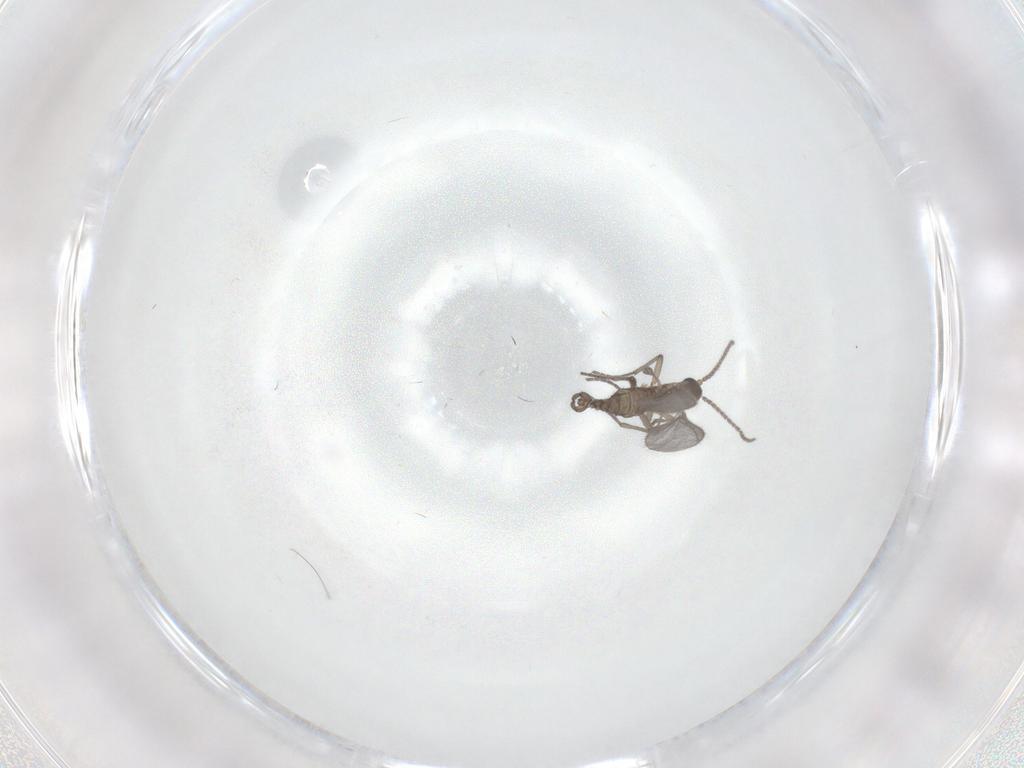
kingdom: Animalia
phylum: Arthropoda
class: Insecta
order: Diptera
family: Sciaridae
